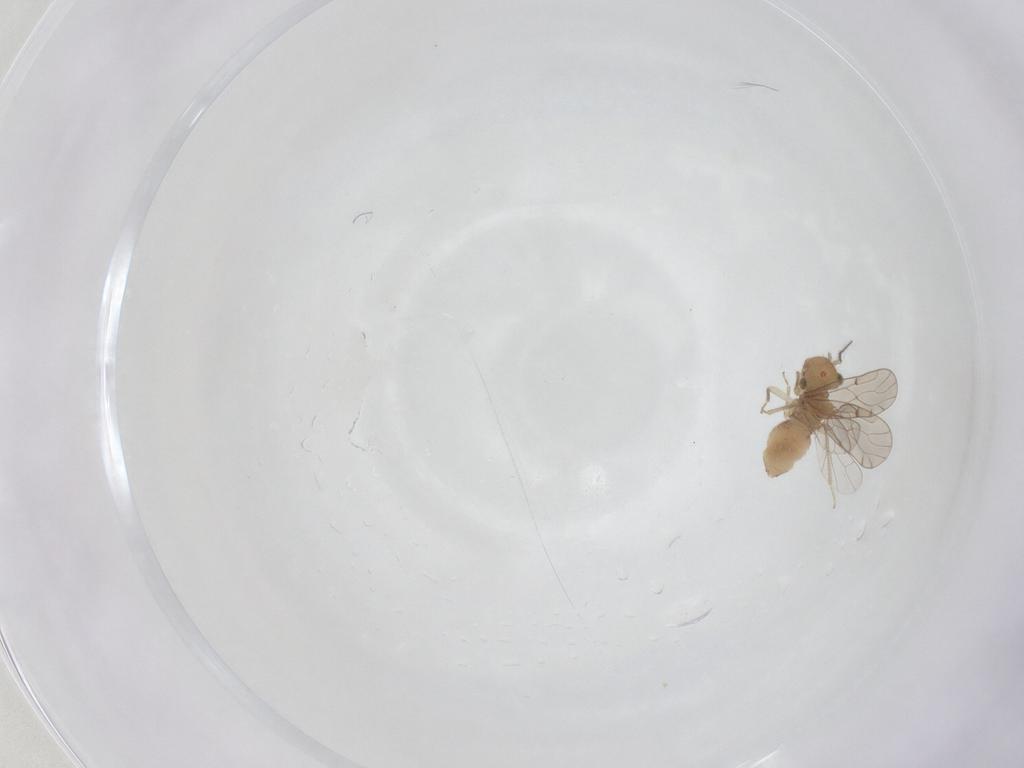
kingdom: Animalia
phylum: Arthropoda
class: Insecta
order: Psocodea
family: Ectopsocidae
